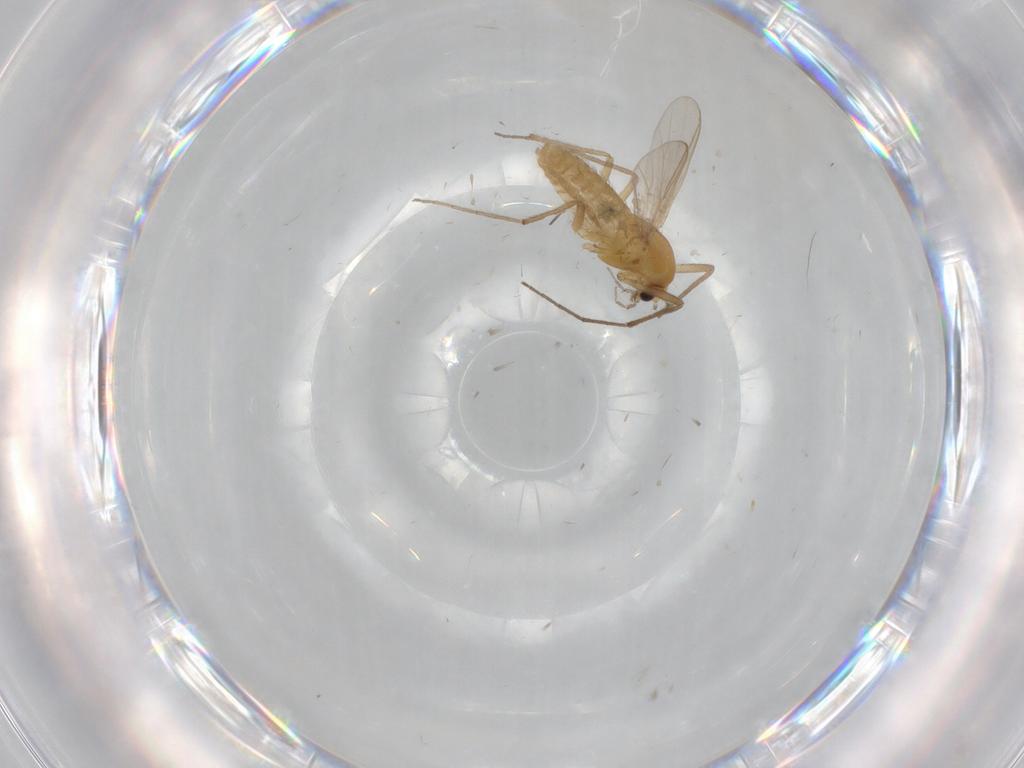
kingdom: Animalia
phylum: Arthropoda
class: Insecta
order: Diptera
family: Chironomidae
